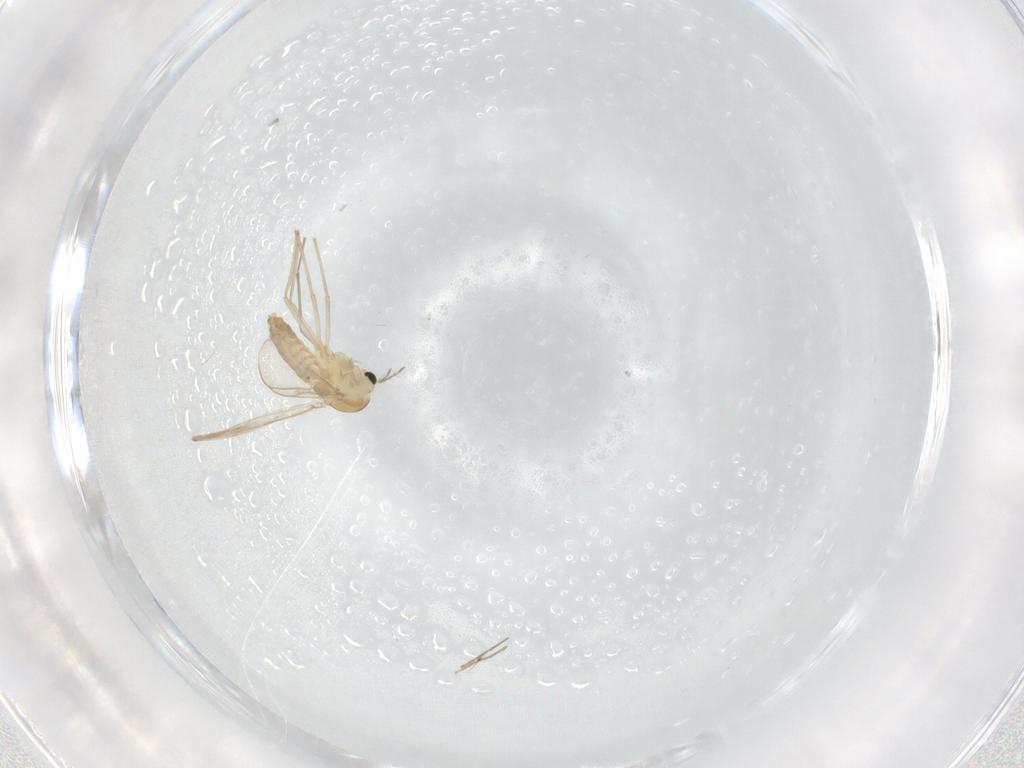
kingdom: Animalia
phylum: Arthropoda
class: Insecta
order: Diptera
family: Chironomidae
